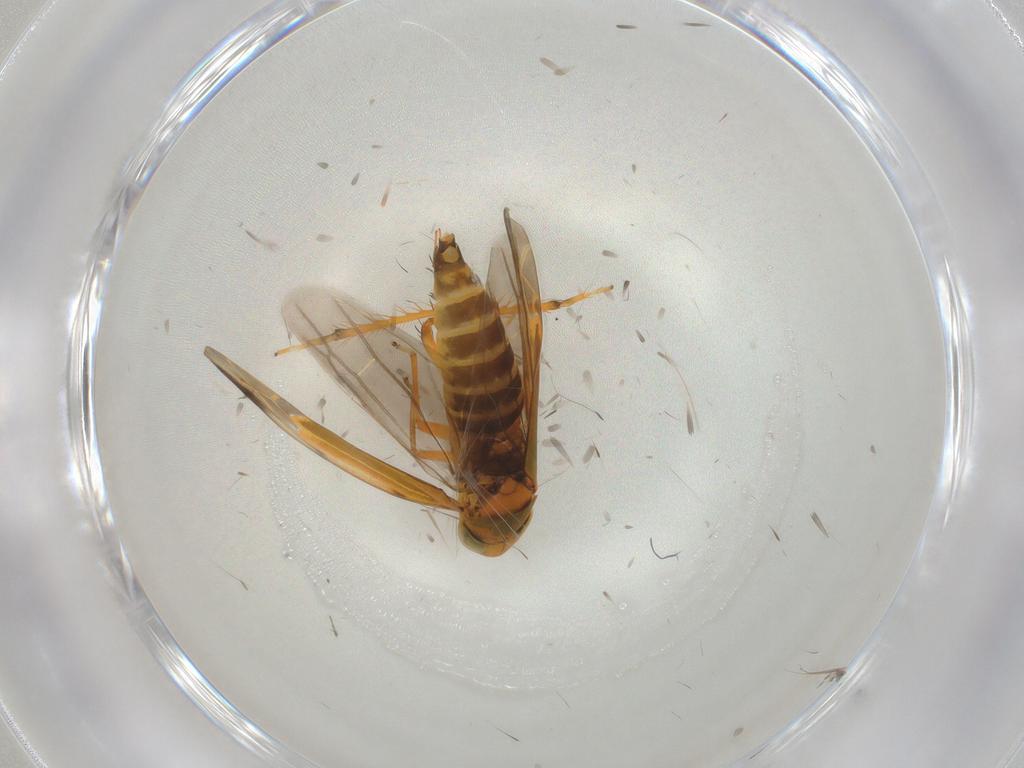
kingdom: Animalia
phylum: Arthropoda
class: Insecta
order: Hemiptera
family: Cicadellidae
